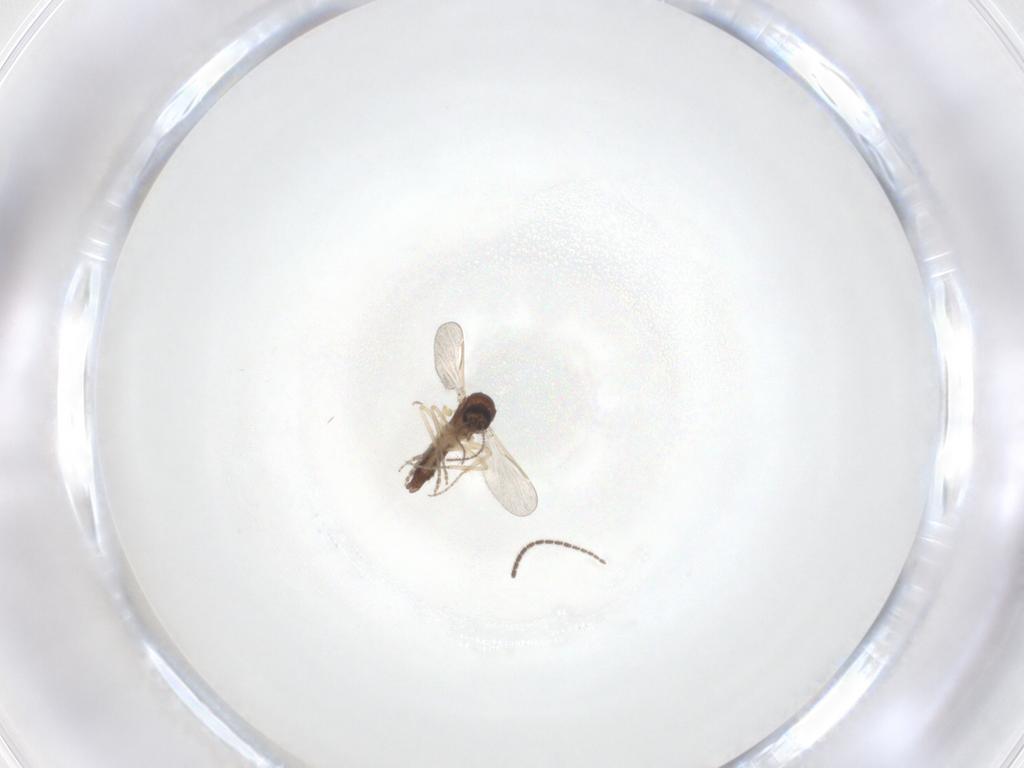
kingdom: Animalia
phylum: Arthropoda
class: Insecta
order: Diptera
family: Ceratopogonidae
